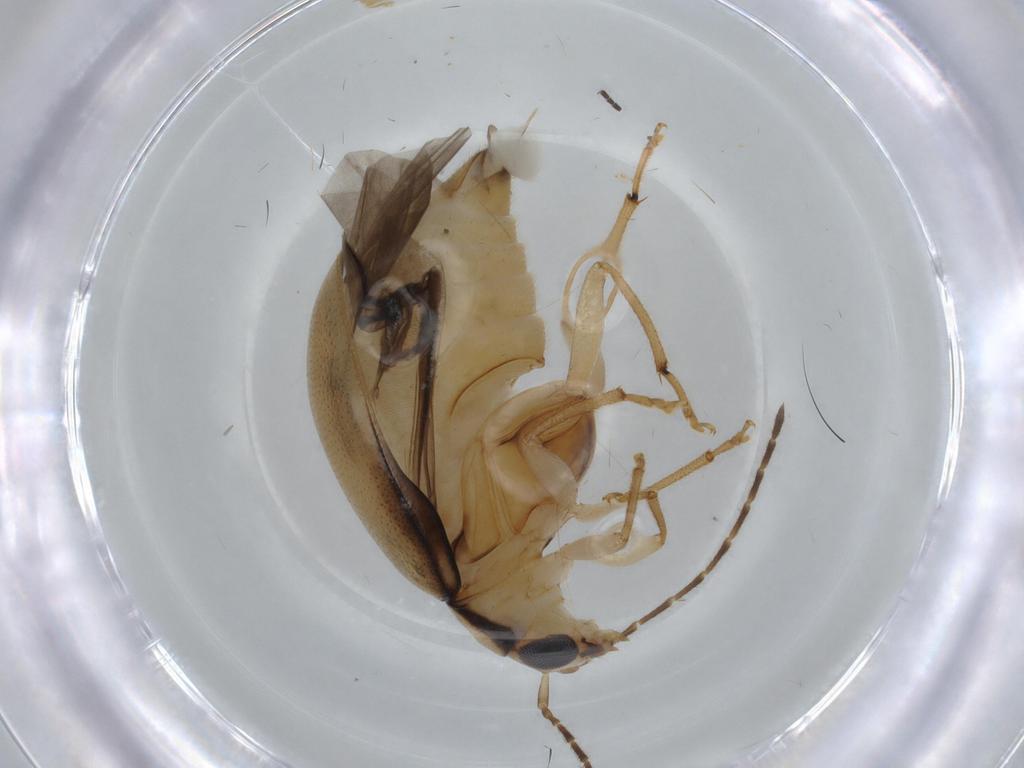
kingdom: Animalia
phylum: Arthropoda
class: Insecta
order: Coleoptera
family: Chrysomelidae
